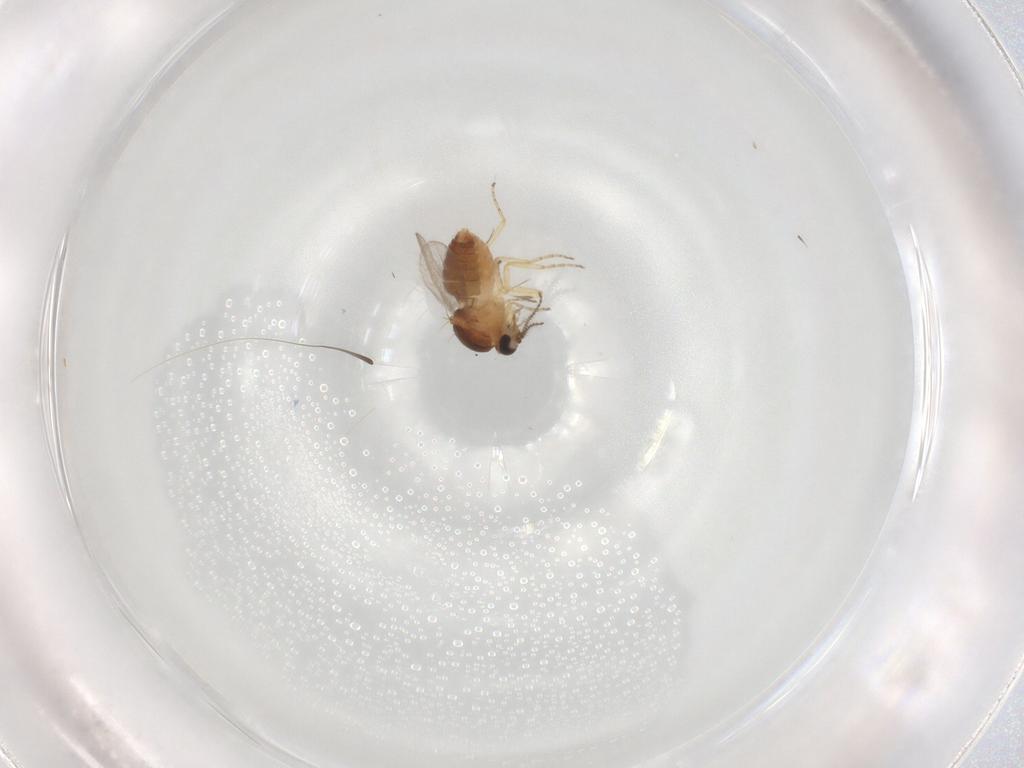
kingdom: Animalia
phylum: Arthropoda
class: Insecta
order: Diptera
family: Ceratopogonidae
